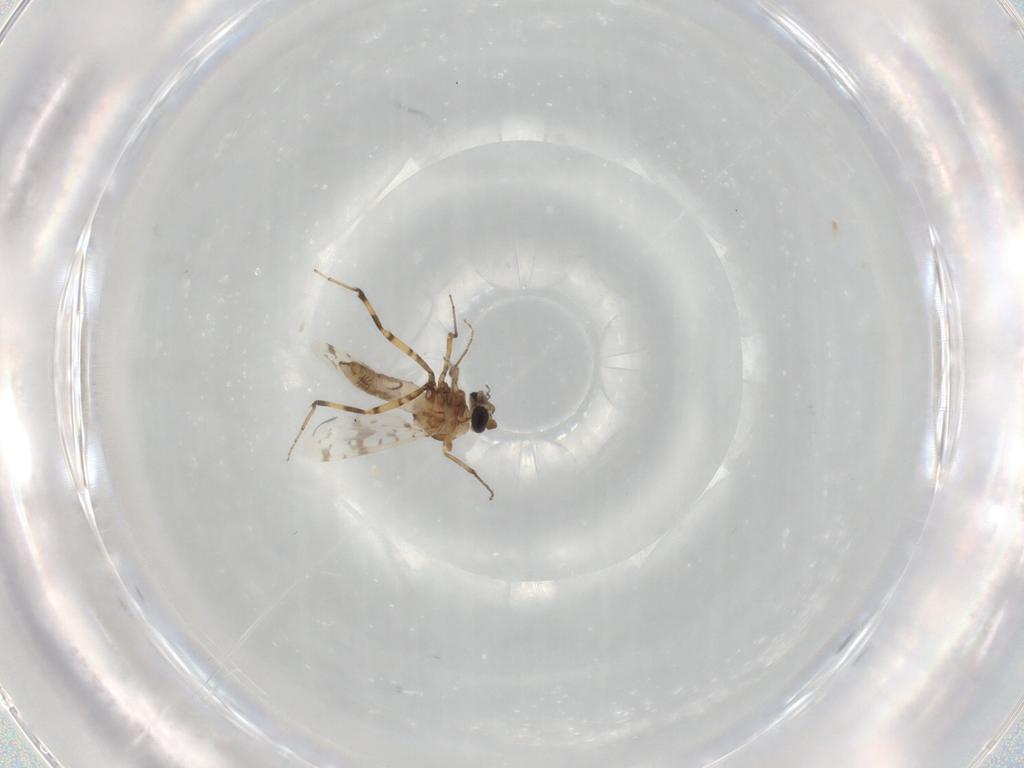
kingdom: Animalia
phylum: Arthropoda
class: Insecta
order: Diptera
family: Ceratopogonidae
